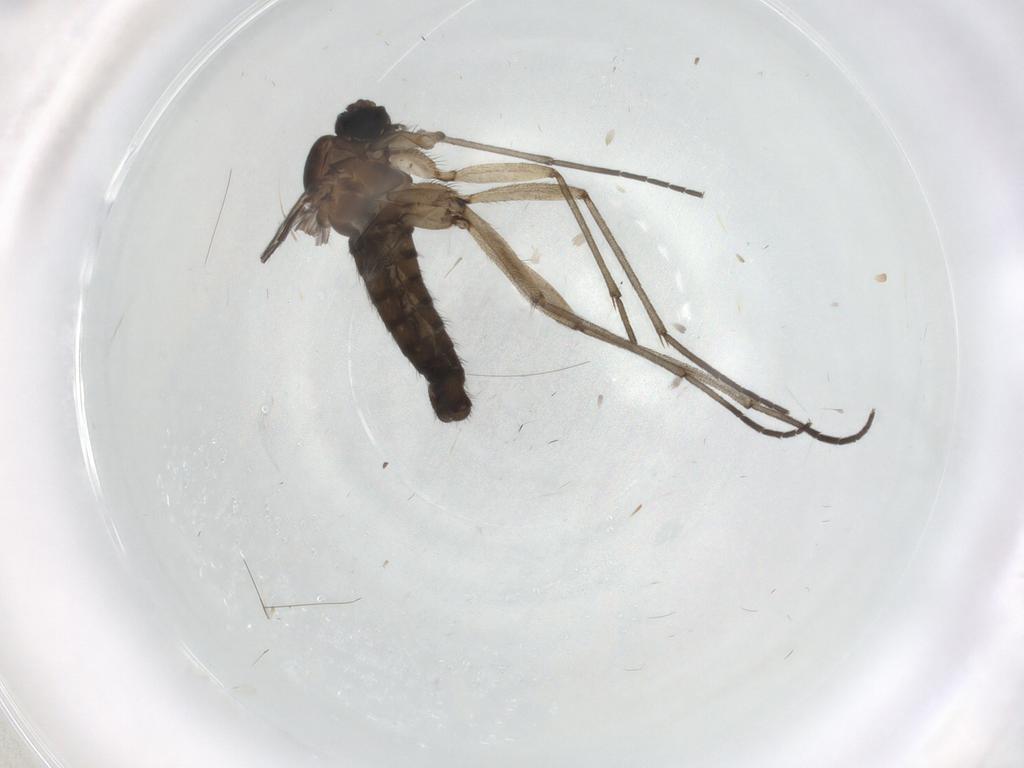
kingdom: Animalia
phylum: Arthropoda
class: Insecta
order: Diptera
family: Sciaridae
